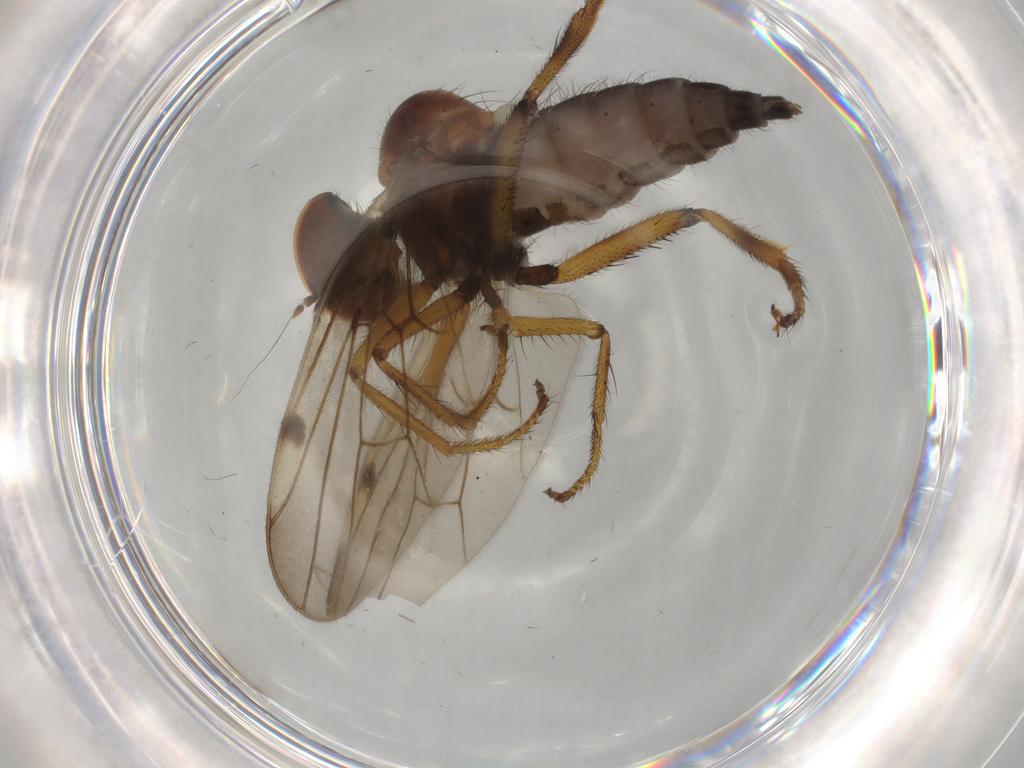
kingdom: Animalia
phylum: Arthropoda
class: Insecta
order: Diptera
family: Hybotidae
